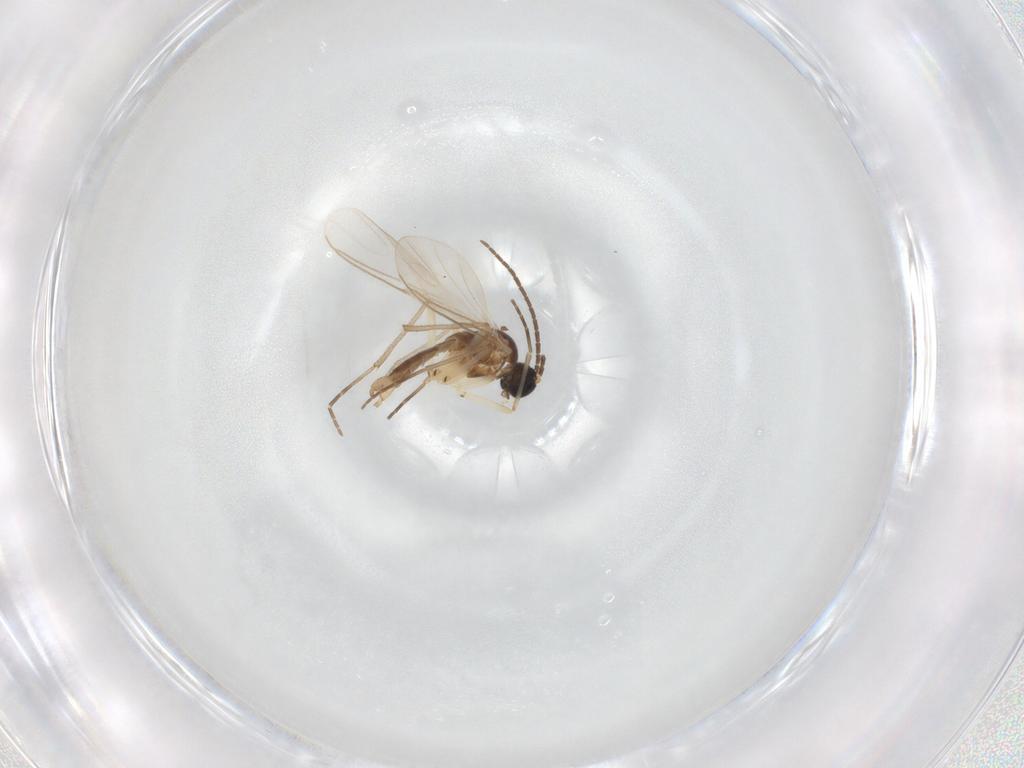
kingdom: Animalia
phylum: Arthropoda
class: Insecta
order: Diptera
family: Sciaridae
